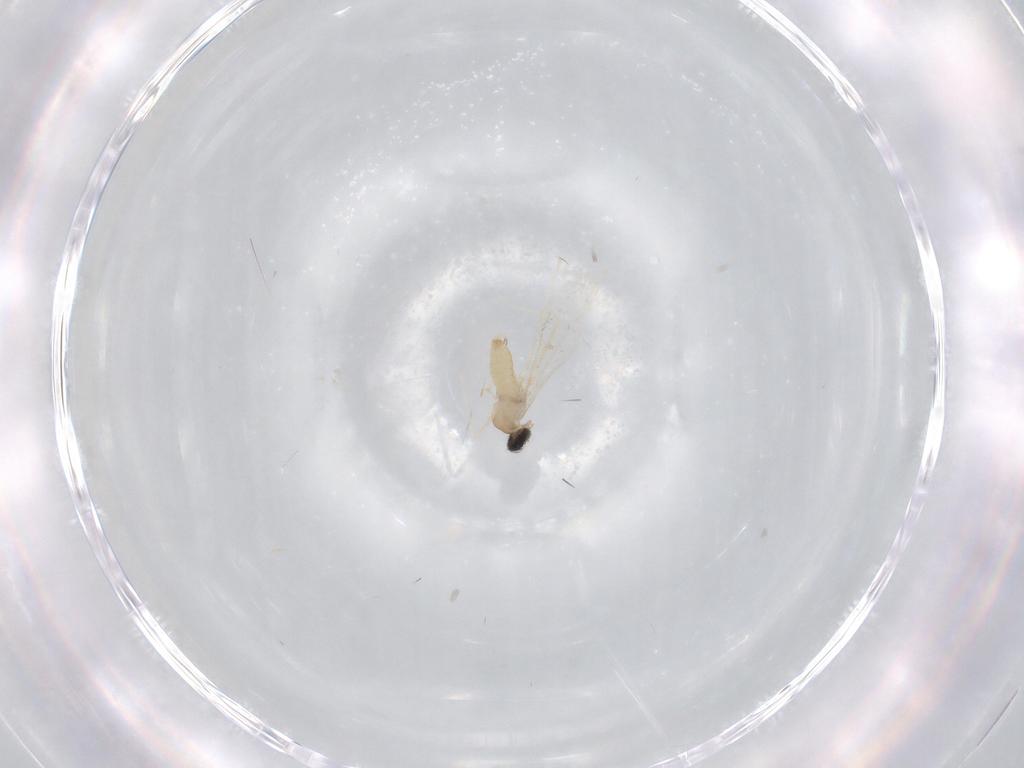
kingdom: Animalia
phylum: Arthropoda
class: Insecta
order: Diptera
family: Cecidomyiidae
